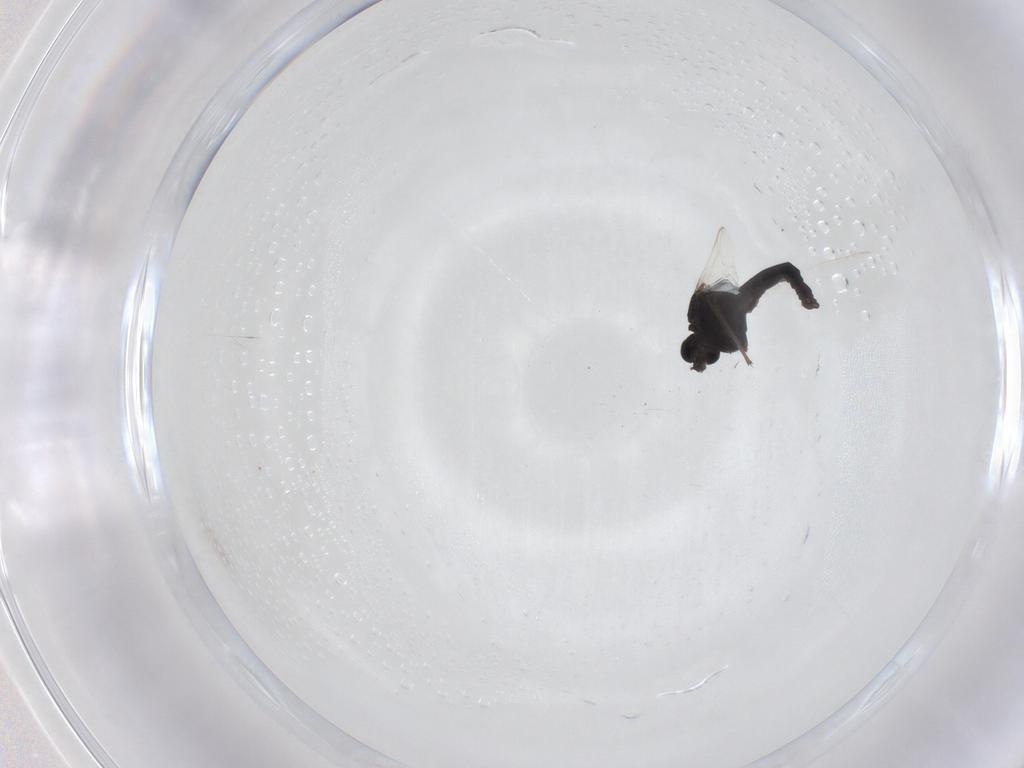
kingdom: Animalia
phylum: Arthropoda
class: Insecta
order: Diptera
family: Chironomidae
